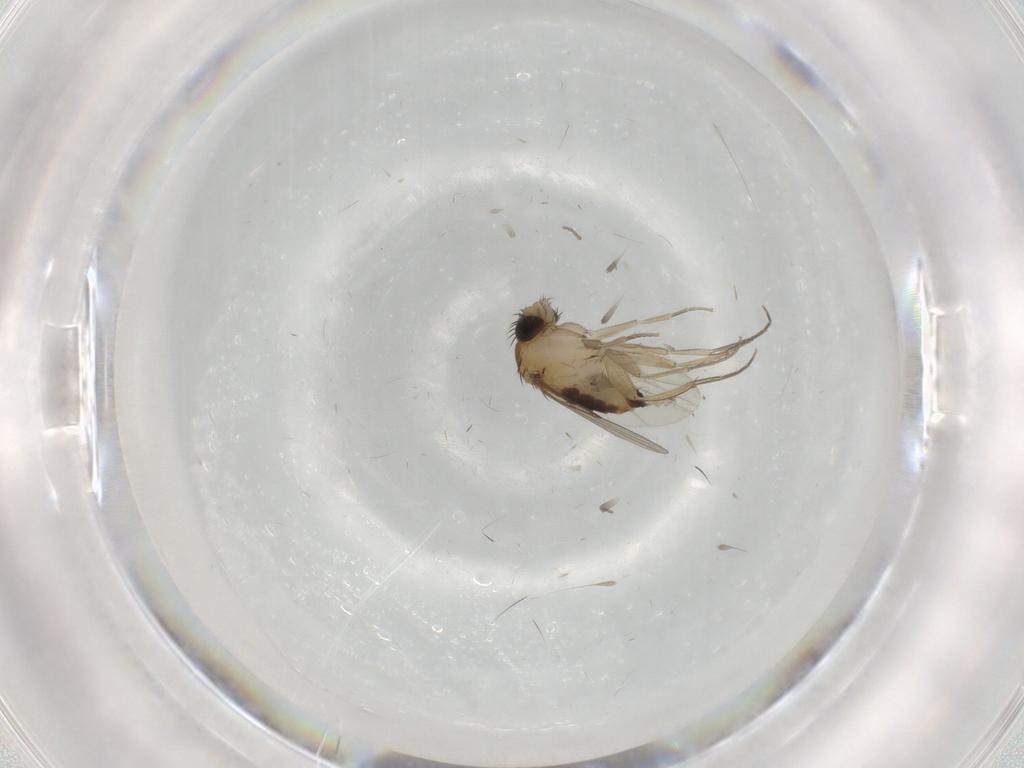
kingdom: Animalia
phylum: Arthropoda
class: Insecta
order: Diptera
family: Phoridae
